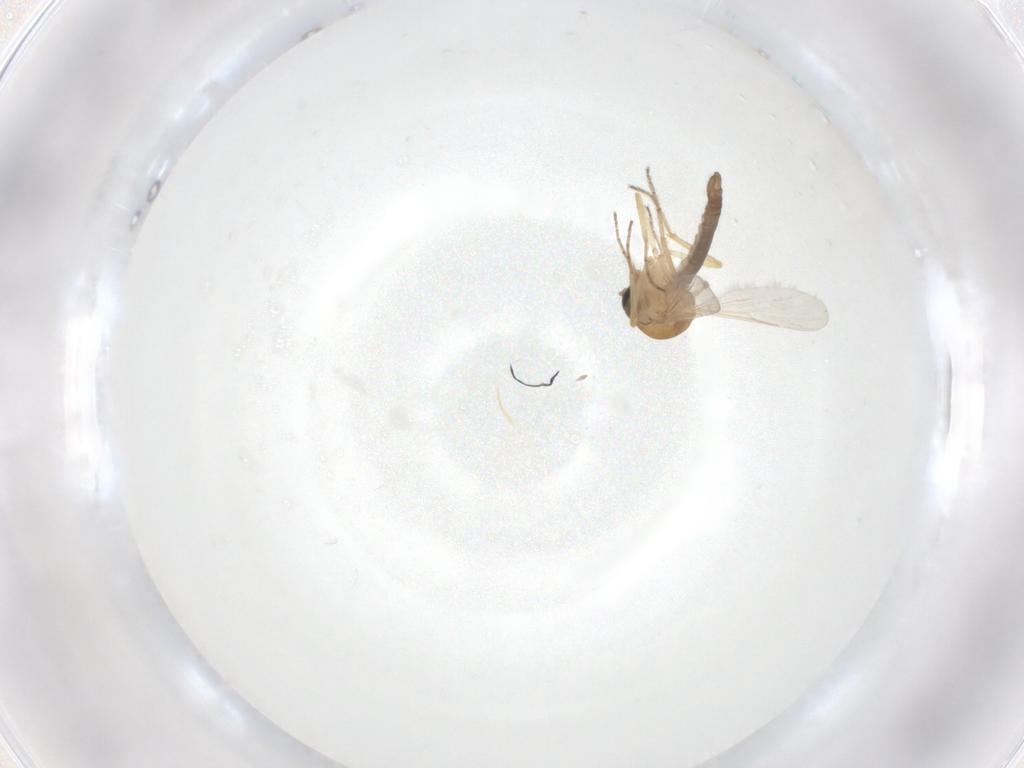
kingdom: Animalia
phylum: Arthropoda
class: Insecta
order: Diptera
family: Ceratopogonidae
